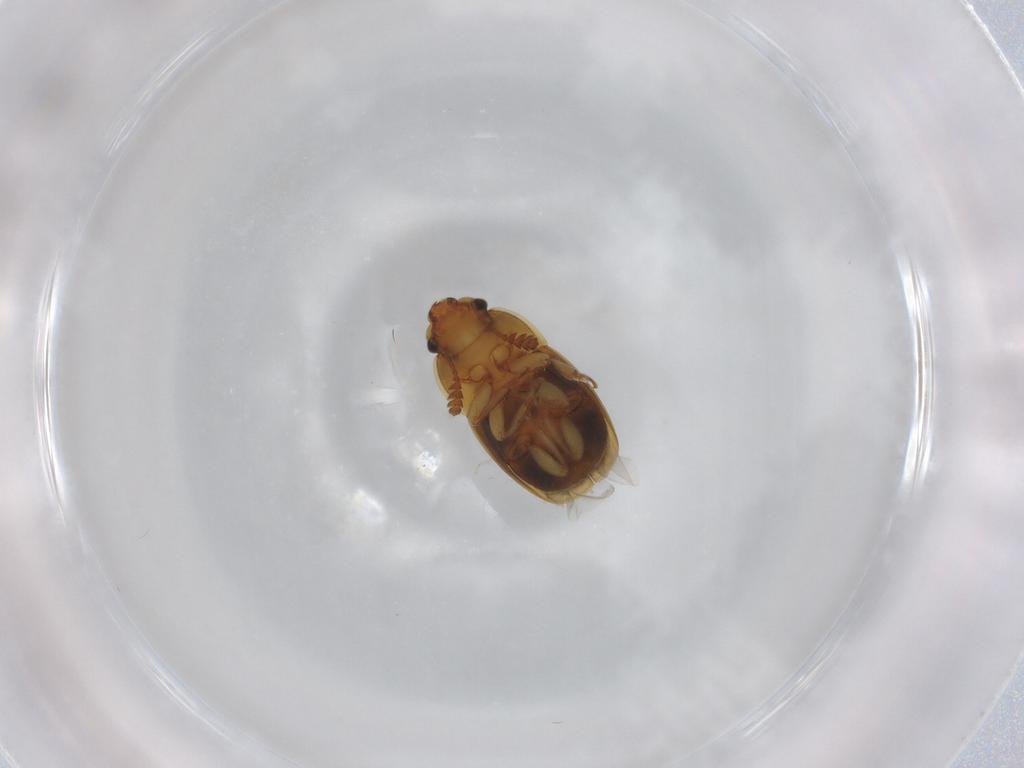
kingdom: Animalia
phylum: Arthropoda
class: Insecta
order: Coleoptera
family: Nitidulidae
